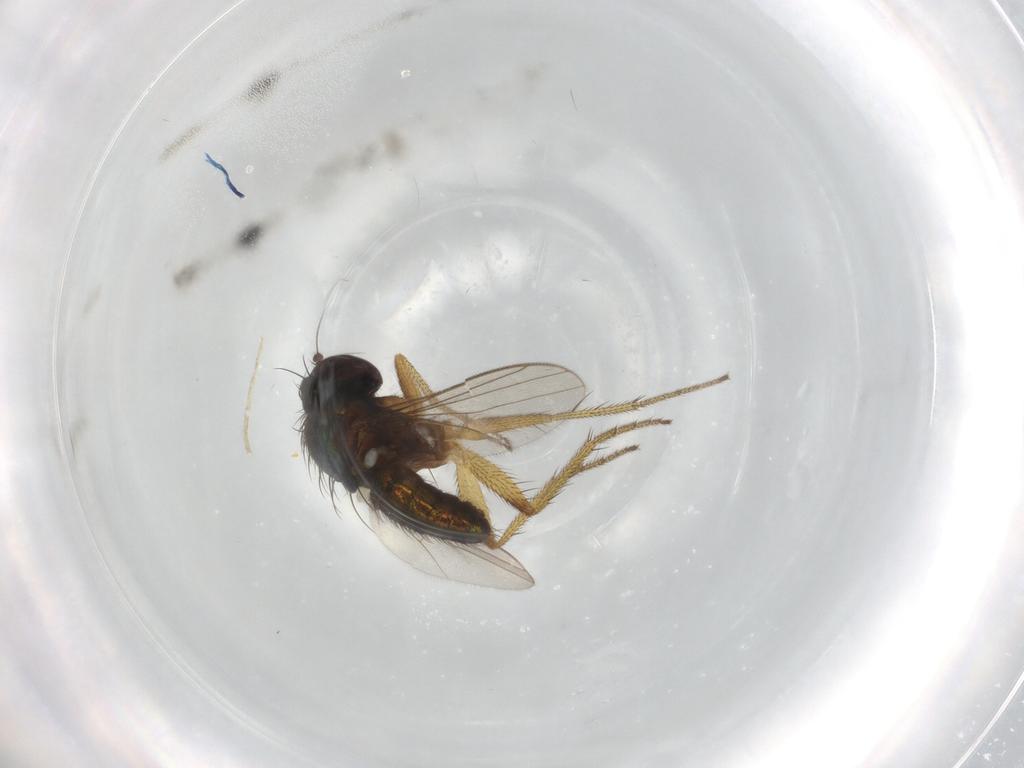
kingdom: Animalia
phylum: Arthropoda
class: Insecta
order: Diptera
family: Dolichopodidae
